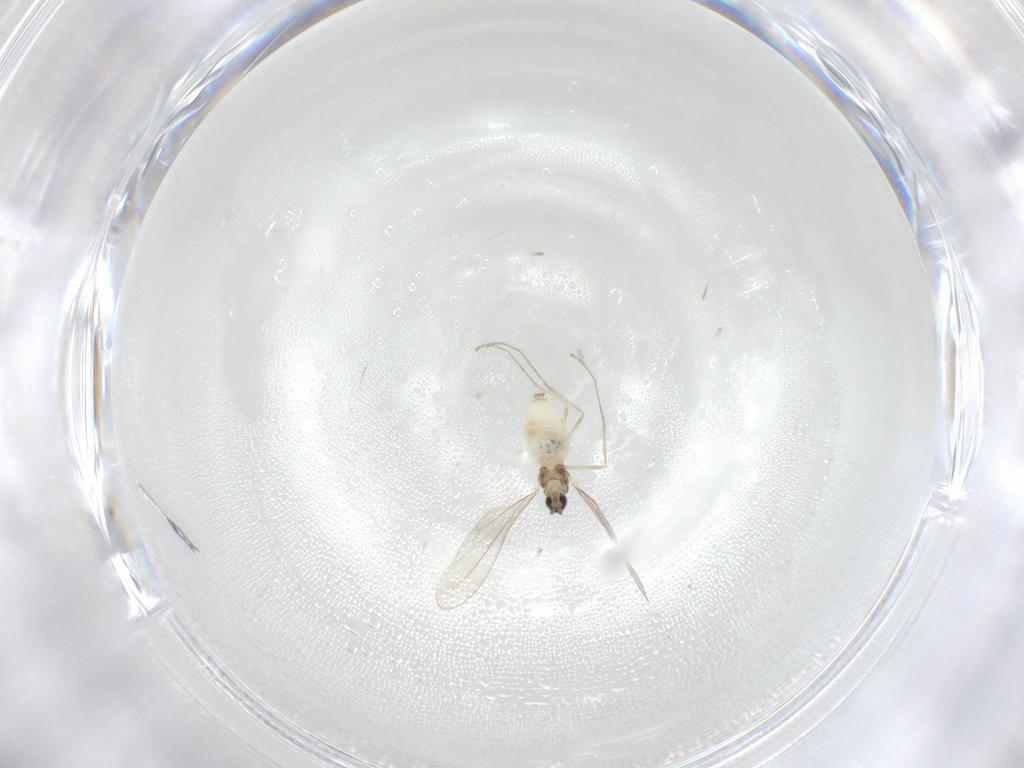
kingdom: Animalia
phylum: Arthropoda
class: Insecta
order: Diptera
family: Cecidomyiidae
